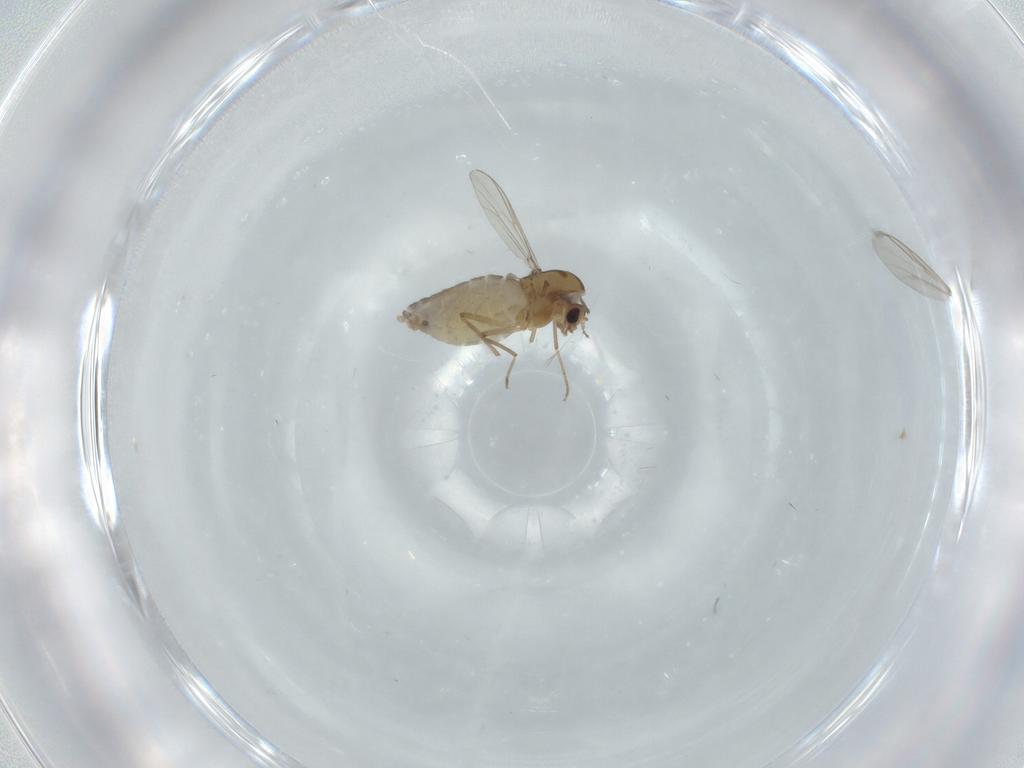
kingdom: Animalia
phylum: Arthropoda
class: Insecta
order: Diptera
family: Chironomidae
